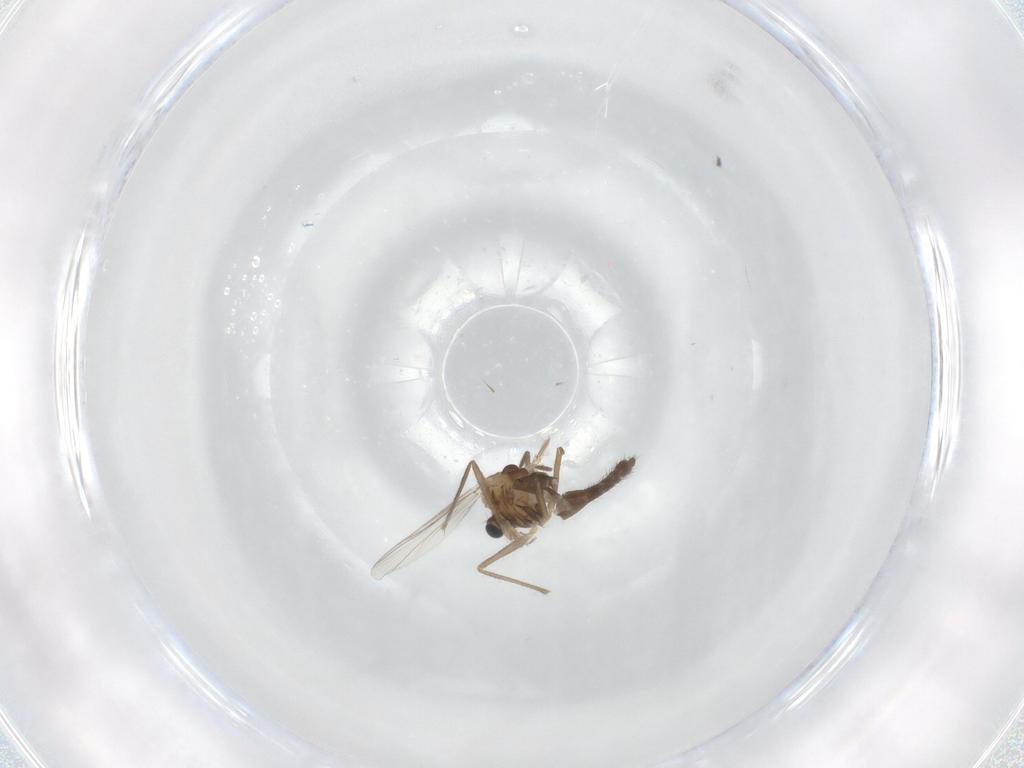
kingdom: Animalia
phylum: Arthropoda
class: Insecta
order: Diptera
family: Chironomidae
